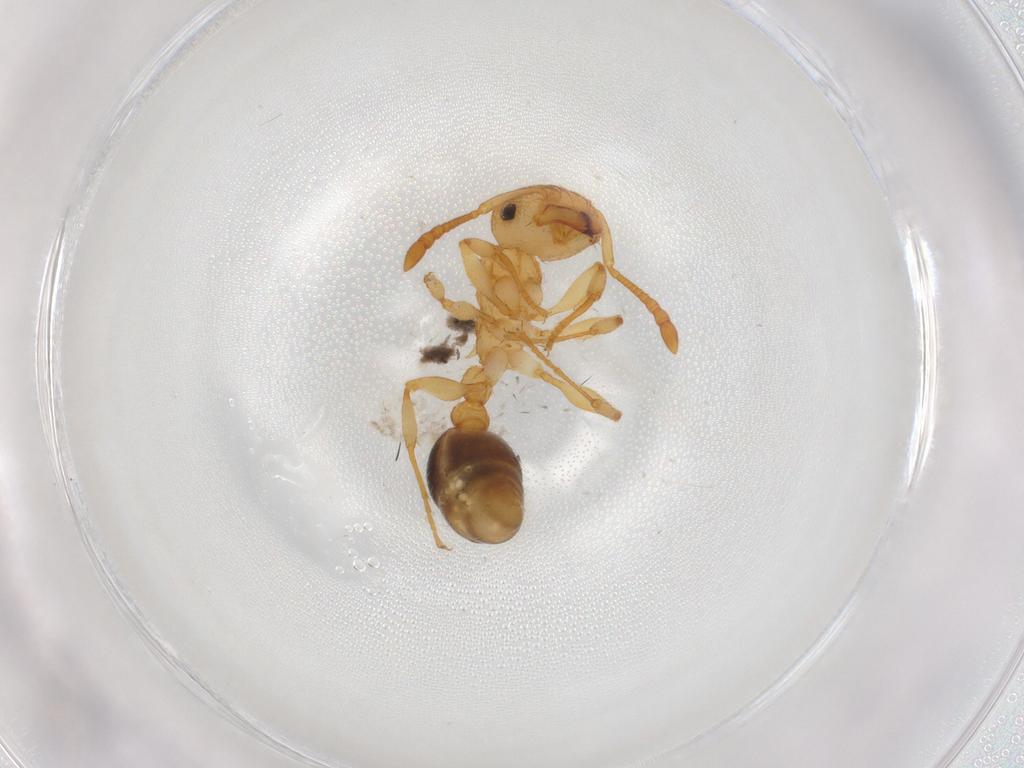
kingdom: Animalia
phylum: Arthropoda
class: Insecta
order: Hymenoptera
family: Formicidae
